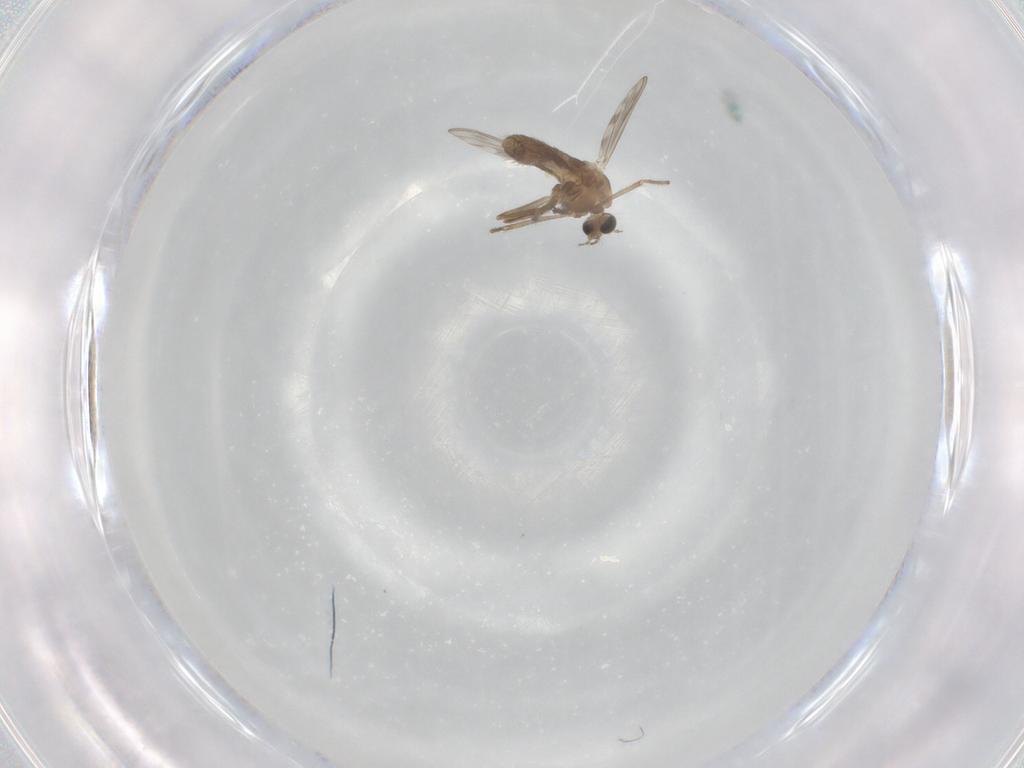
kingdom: Animalia
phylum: Arthropoda
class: Insecta
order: Diptera
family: Chironomidae
